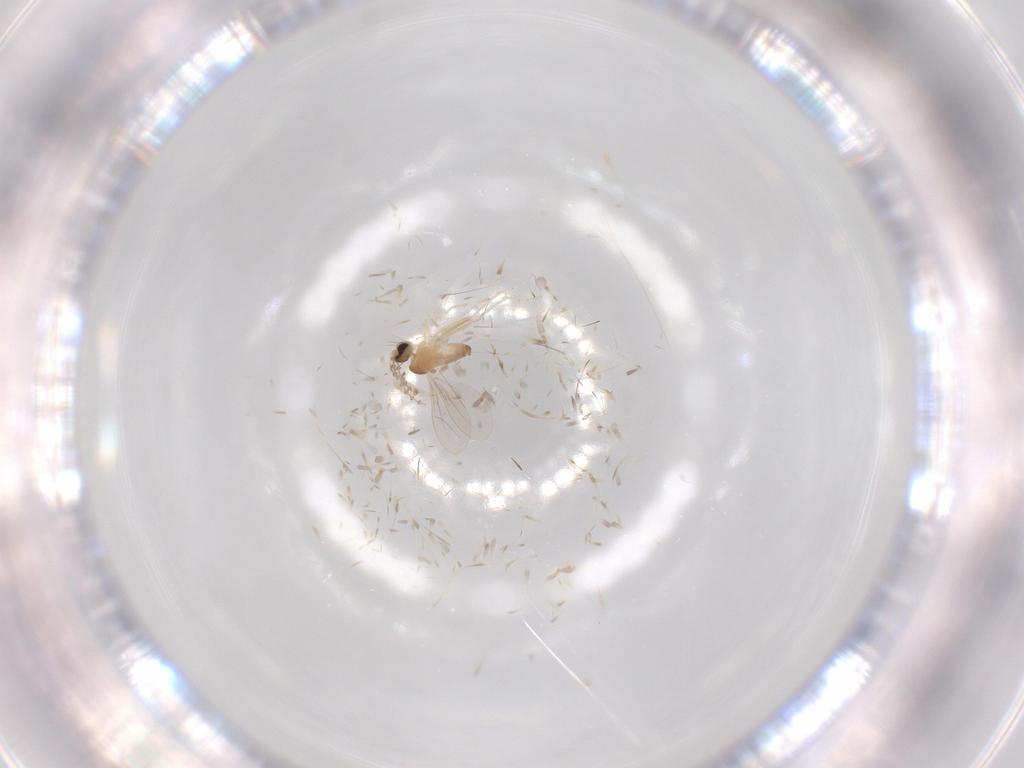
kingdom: Animalia
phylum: Arthropoda
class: Insecta
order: Diptera
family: Cecidomyiidae
